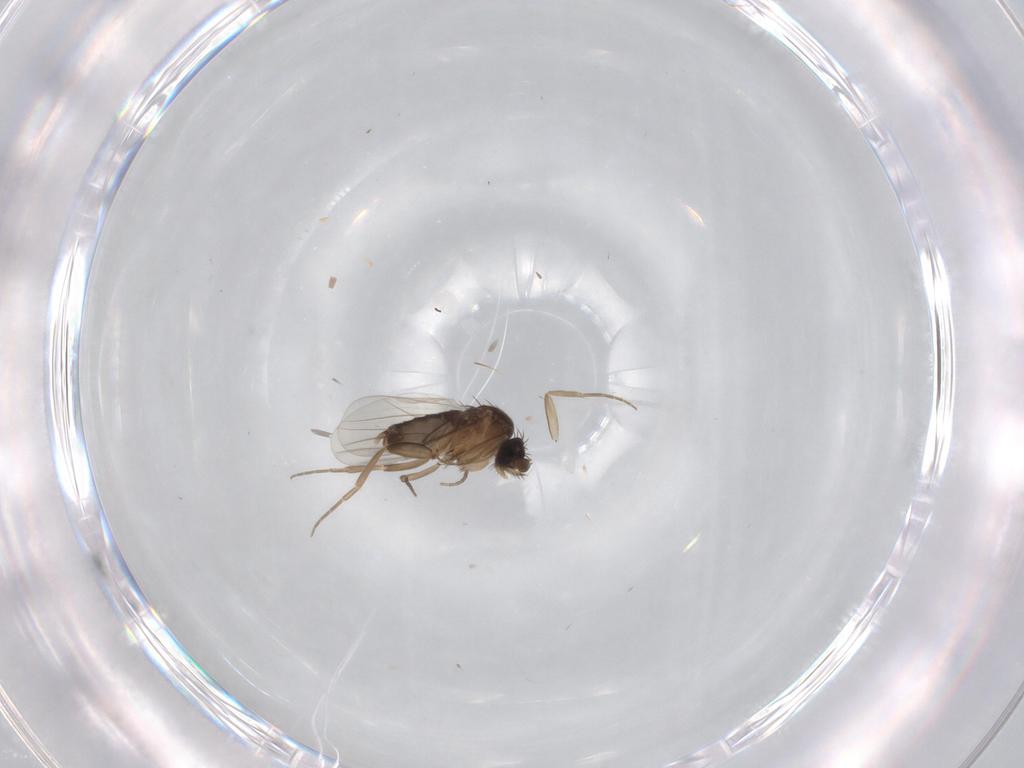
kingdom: Animalia
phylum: Arthropoda
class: Insecta
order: Diptera
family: Phoridae
